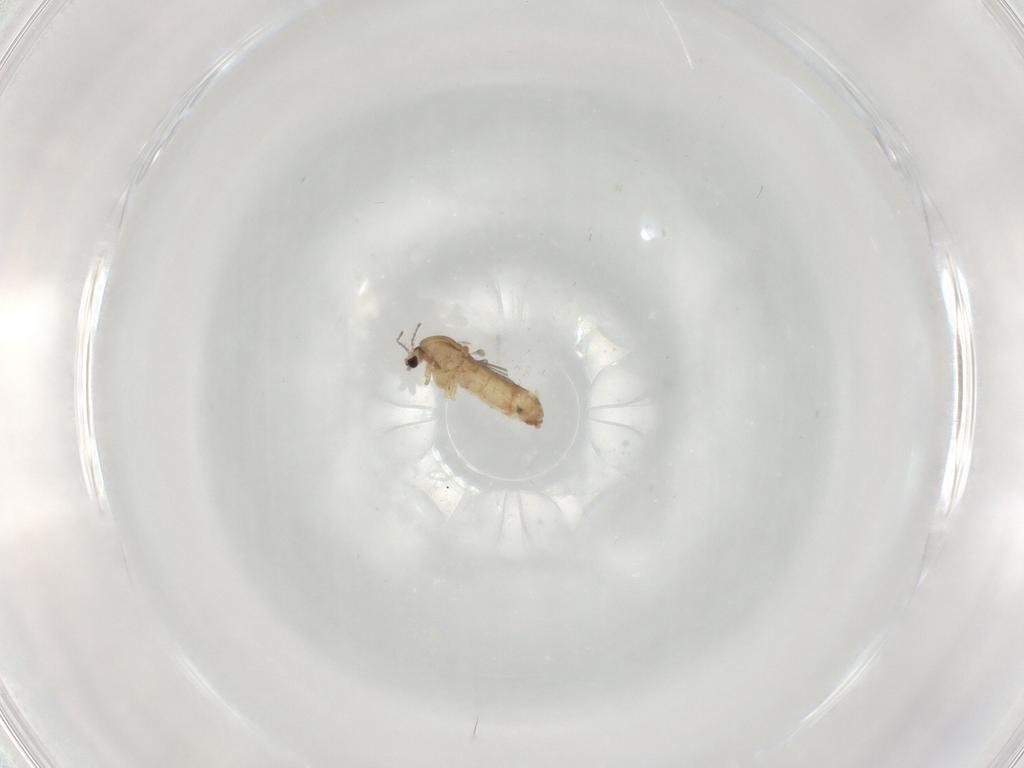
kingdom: Animalia
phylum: Arthropoda
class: Insecta
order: Diptera
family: Chironomidae
